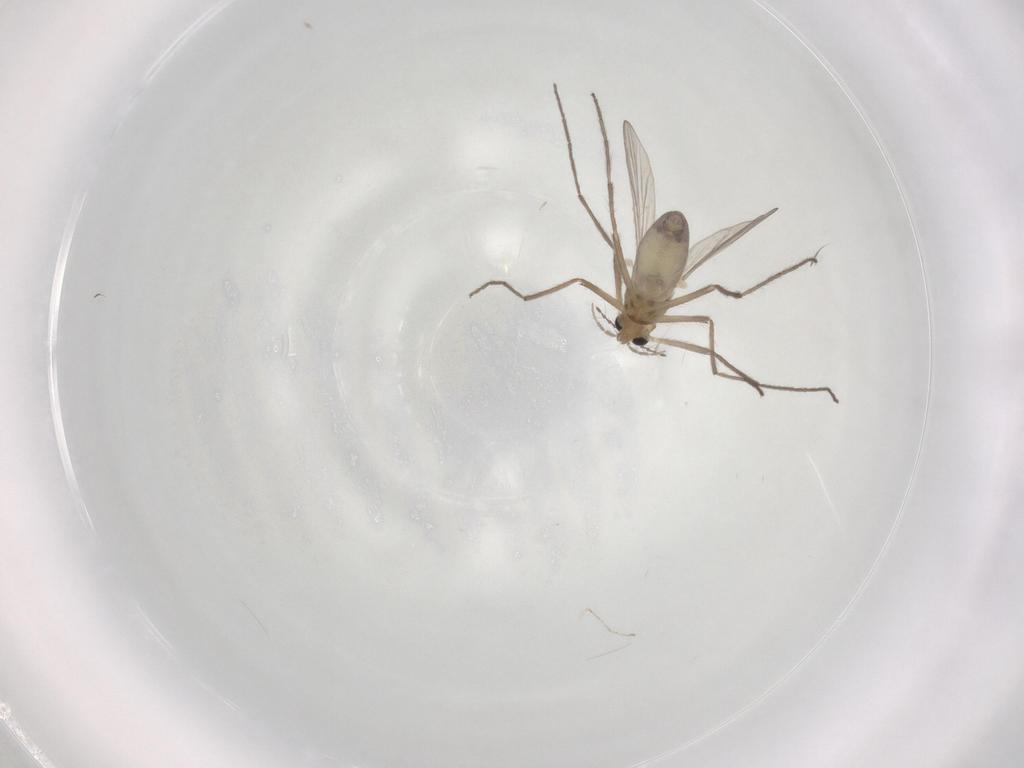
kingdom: Animalia
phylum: Arthropoda
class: Insecta
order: Diptera
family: Chironomidae
